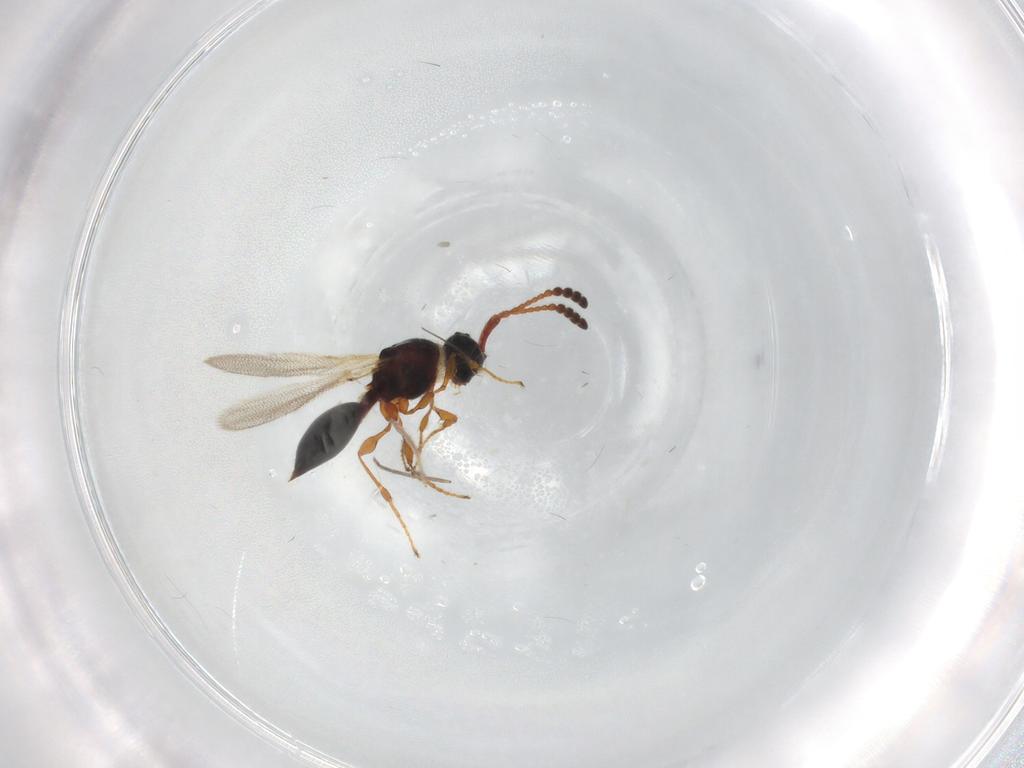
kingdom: Animalia
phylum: Arthropoda
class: Insecta
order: Hymenoptera
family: Diapriidae
